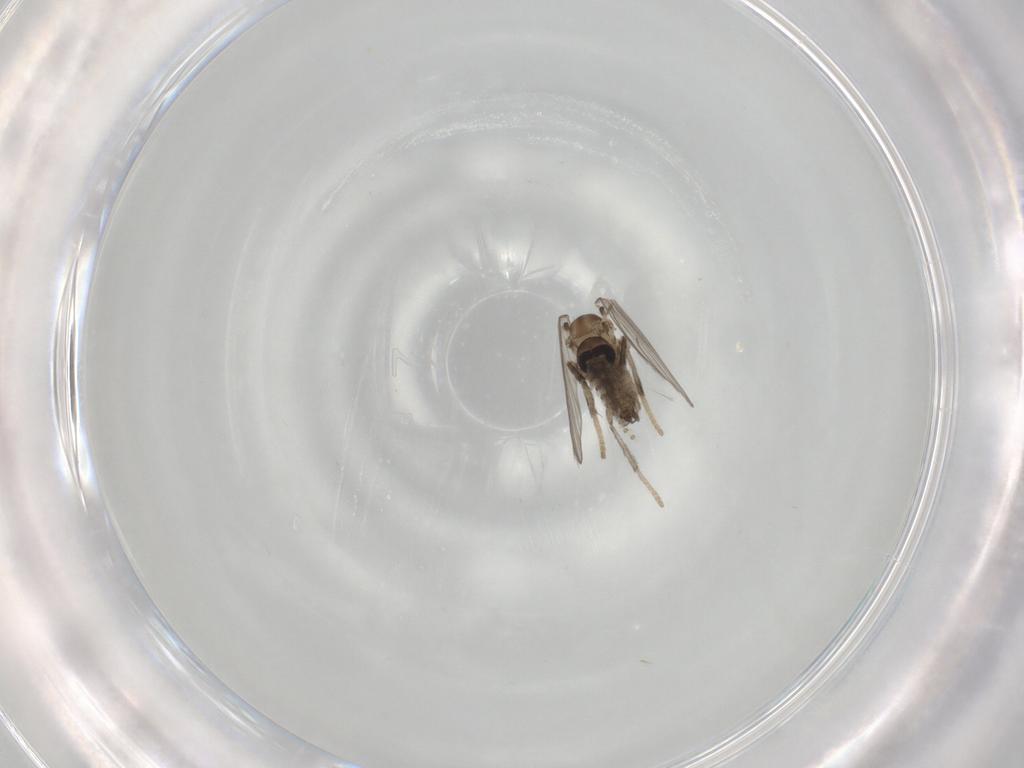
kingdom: Animalia
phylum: Arthropoda
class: Insecta
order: Diptera
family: Psychodidae
